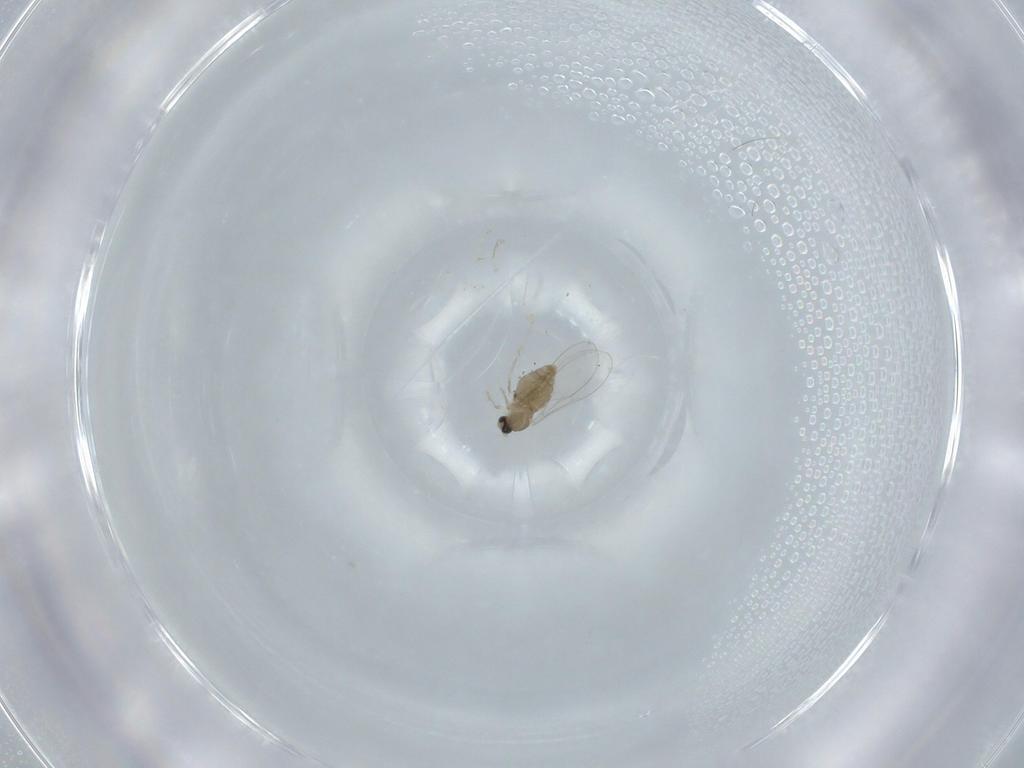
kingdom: Animalia
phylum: Arthropoda
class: Insecta
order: Diptera
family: Cecidomyiidae
